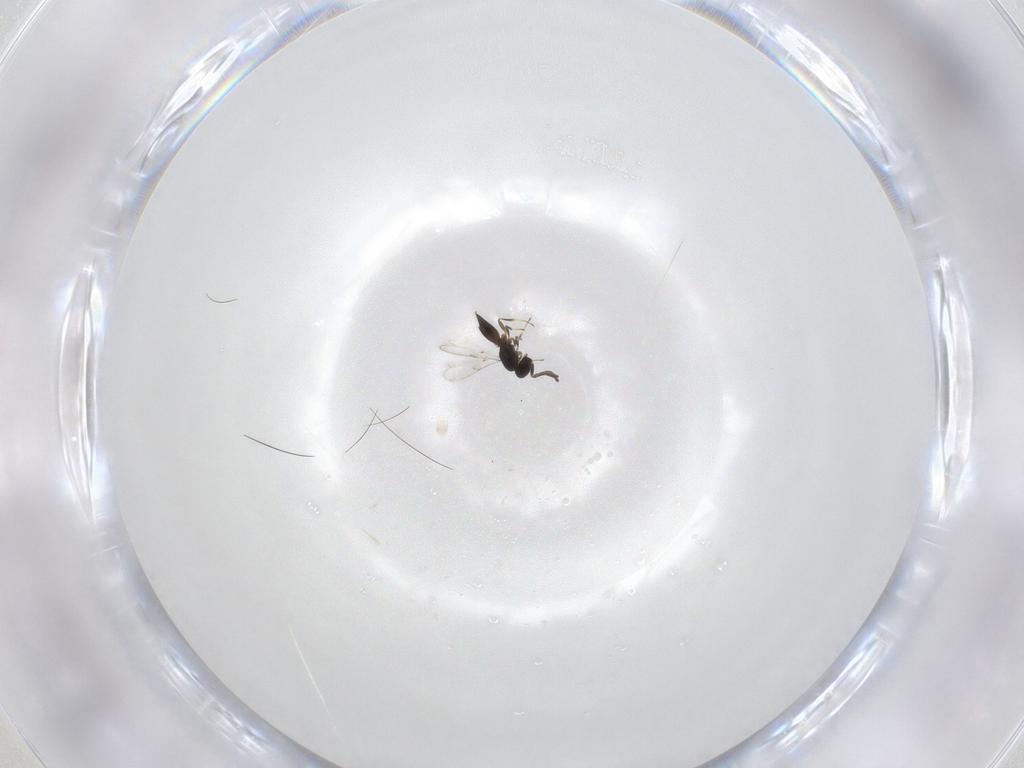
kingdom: Animalia
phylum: Arthropoda
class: Insecta
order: Hymenoptera
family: Scelionidae
